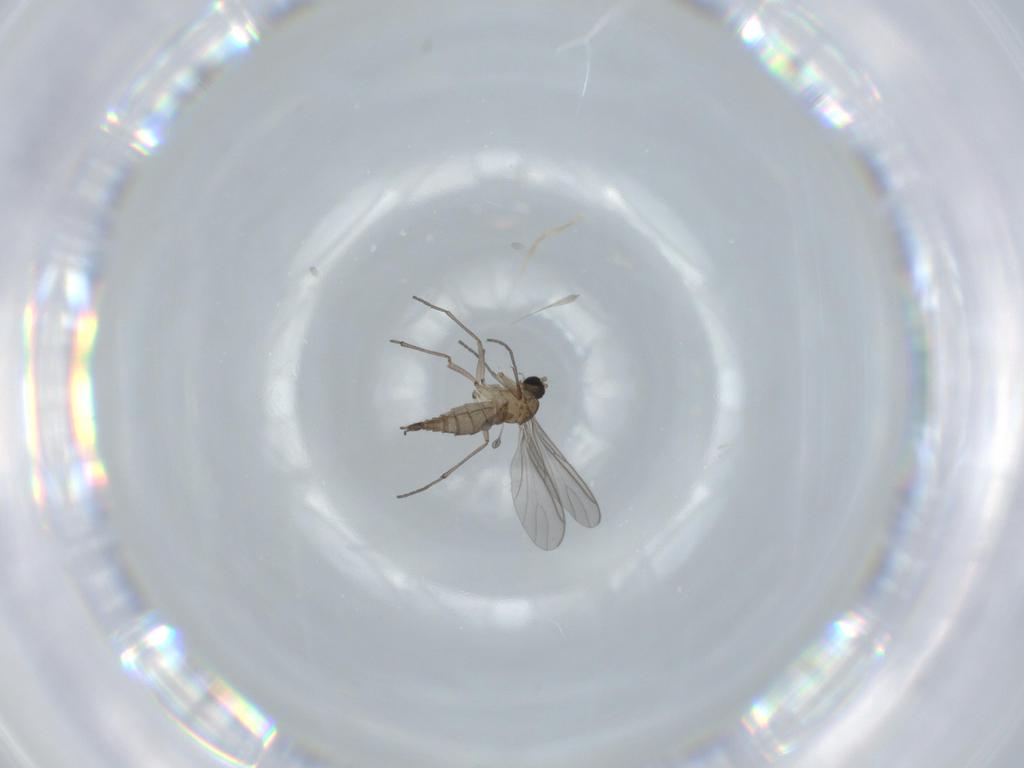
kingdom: Animalia
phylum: Arthropoda
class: Insecta
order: Diptera
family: Sciaridae
